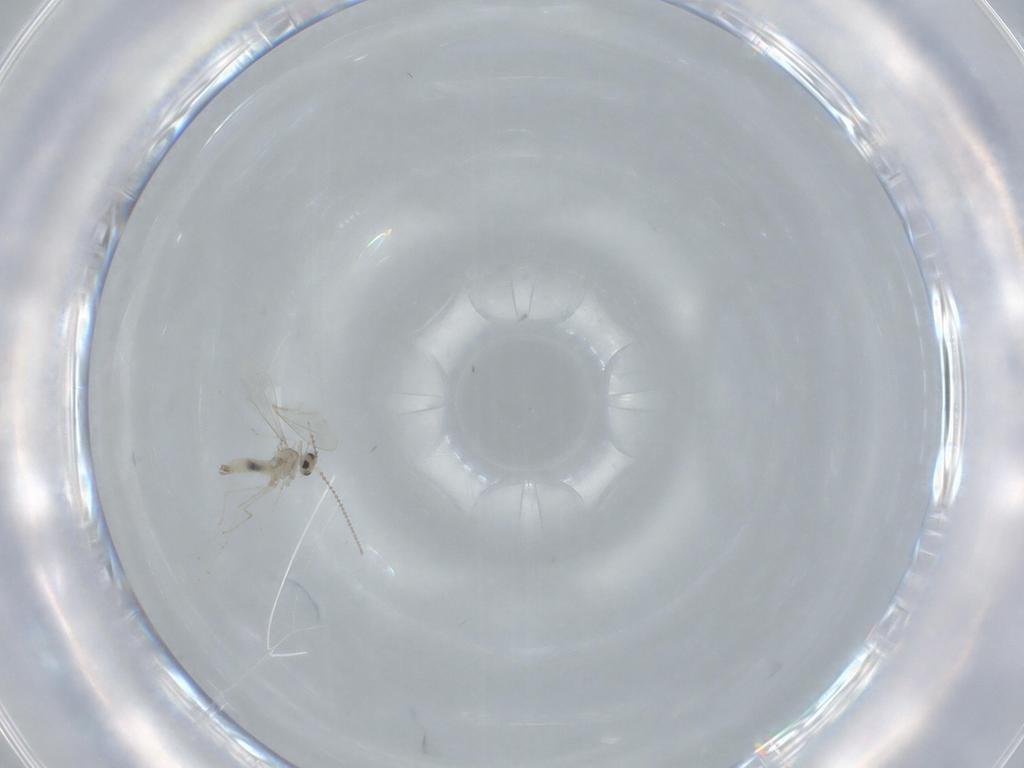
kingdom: Animalia
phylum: Arthropoda
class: Insecta
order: Diptera
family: Cecidomyiidae
